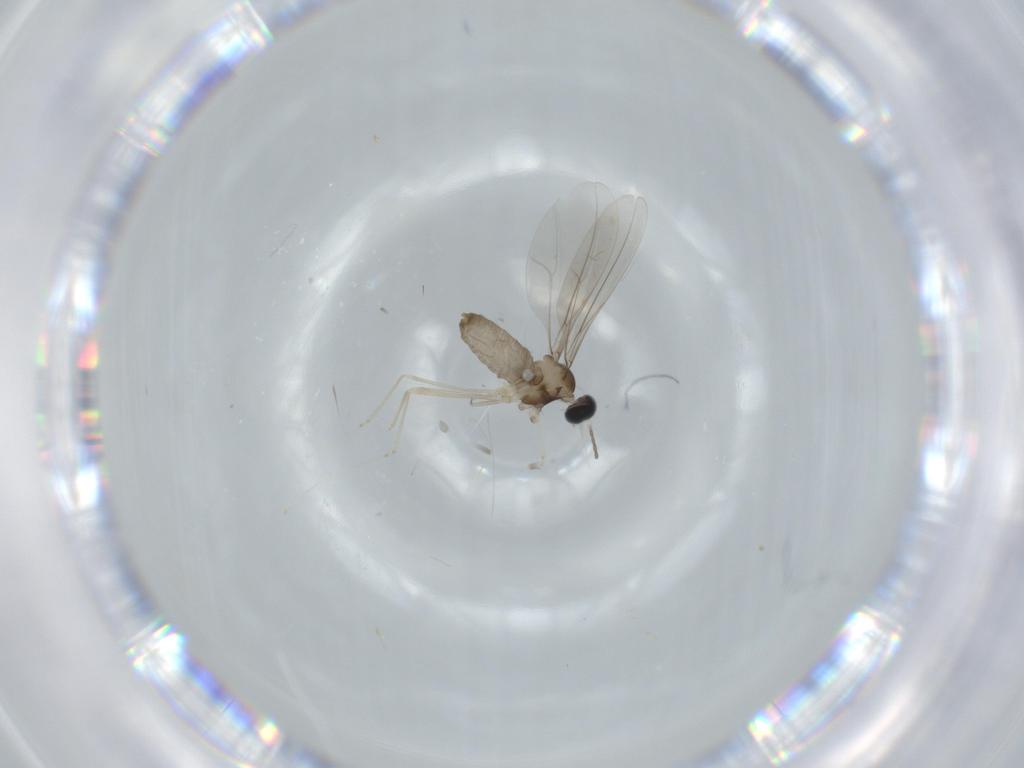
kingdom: Animalia
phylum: Arthropoda
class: Insecta
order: Diptera
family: Cecidomyiidae
